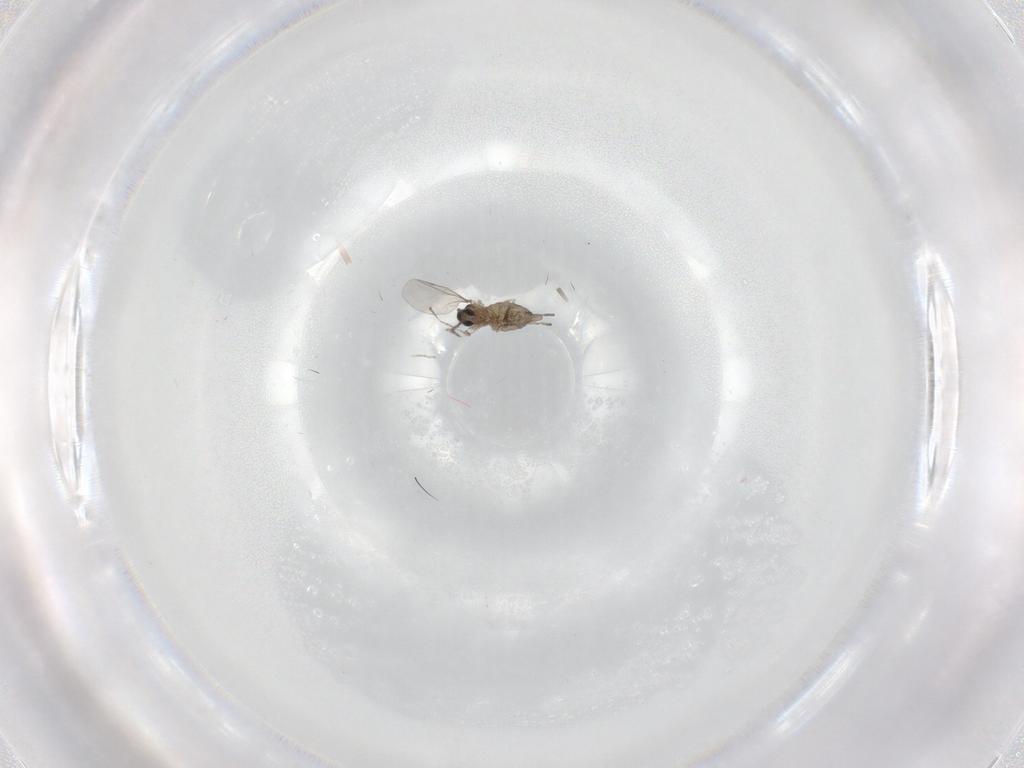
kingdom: Animalia
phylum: Arthropoda
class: Insecta
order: Diptera
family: Cecidomyiidae
